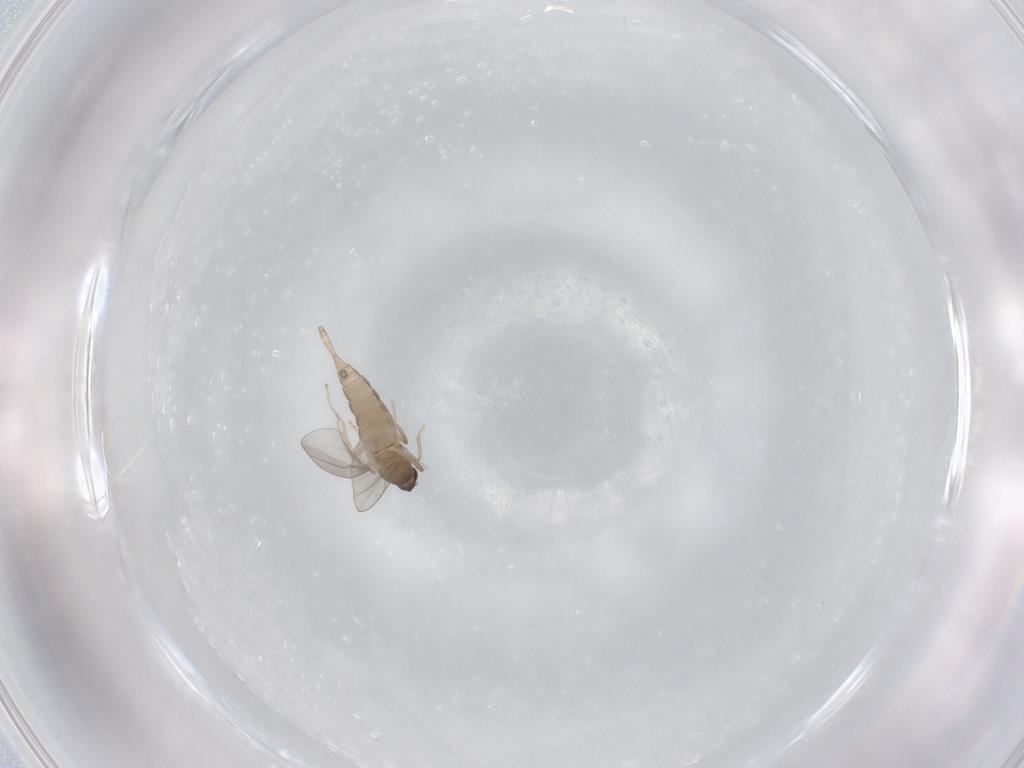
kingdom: Animalia
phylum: Arthropoda
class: Insecta
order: Diptera
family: Cecidomyiidae
